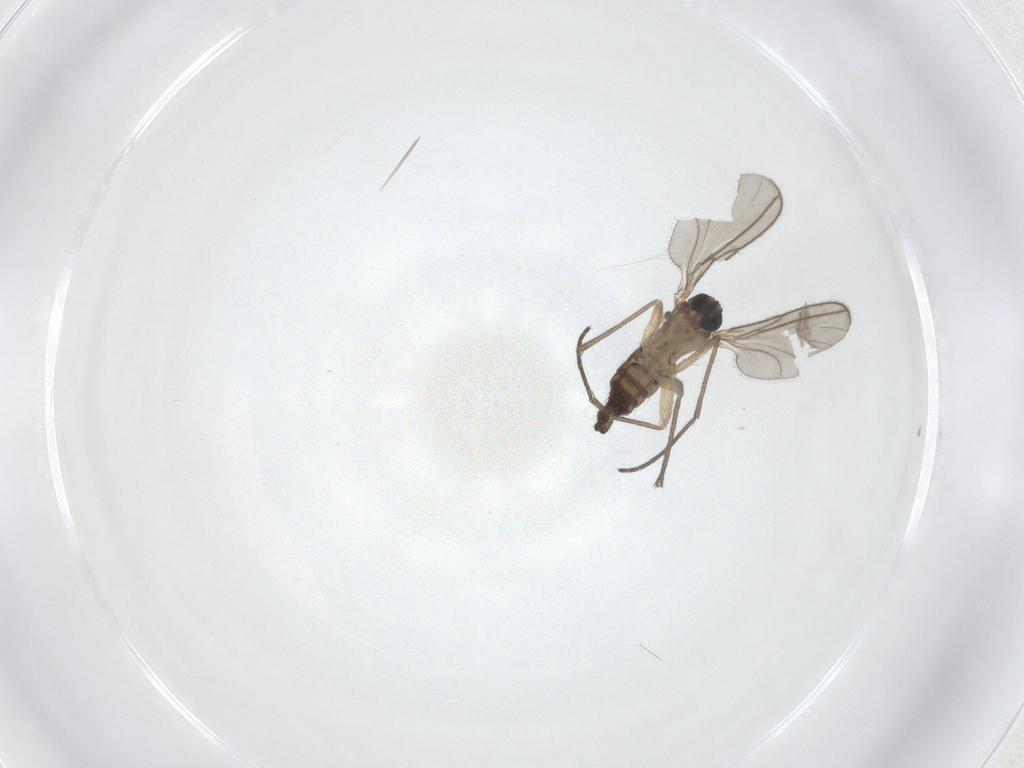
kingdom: Animalia
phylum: Arthropoda
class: Insecta
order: Diptera
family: Sciaridae
